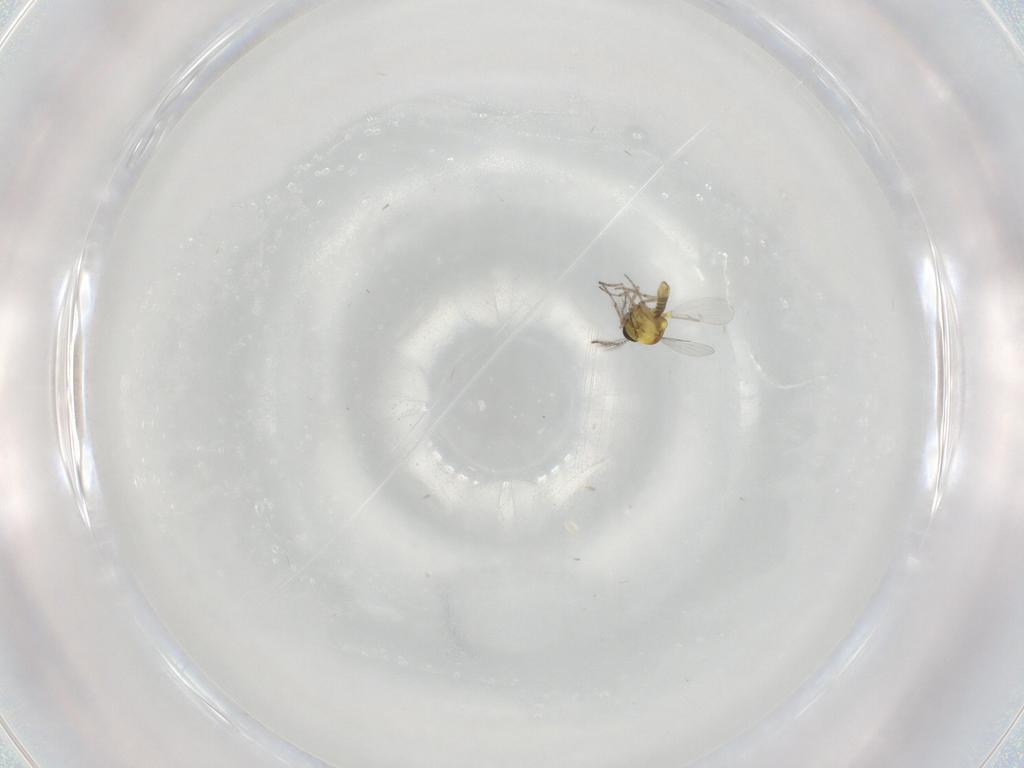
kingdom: Animalia
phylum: Arthropoda
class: Insecta
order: Diptera
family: Ceratopogonidae
